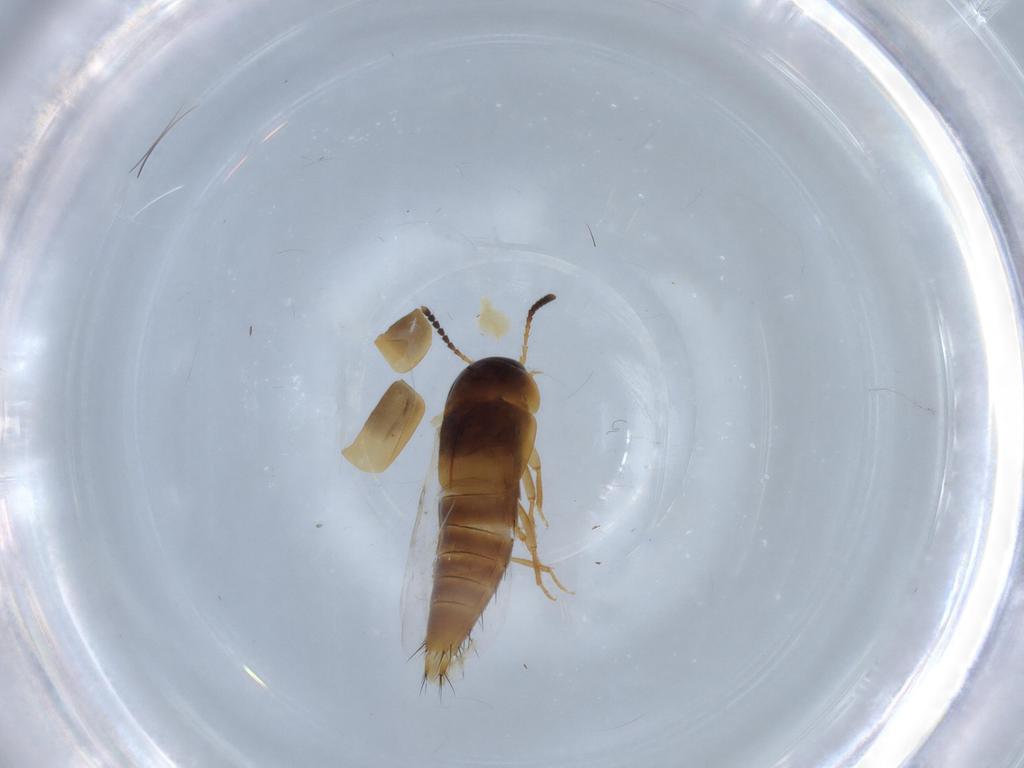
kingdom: Animalia
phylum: Arthropoda
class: Insecta
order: Coleoptera
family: Staphylinidae
